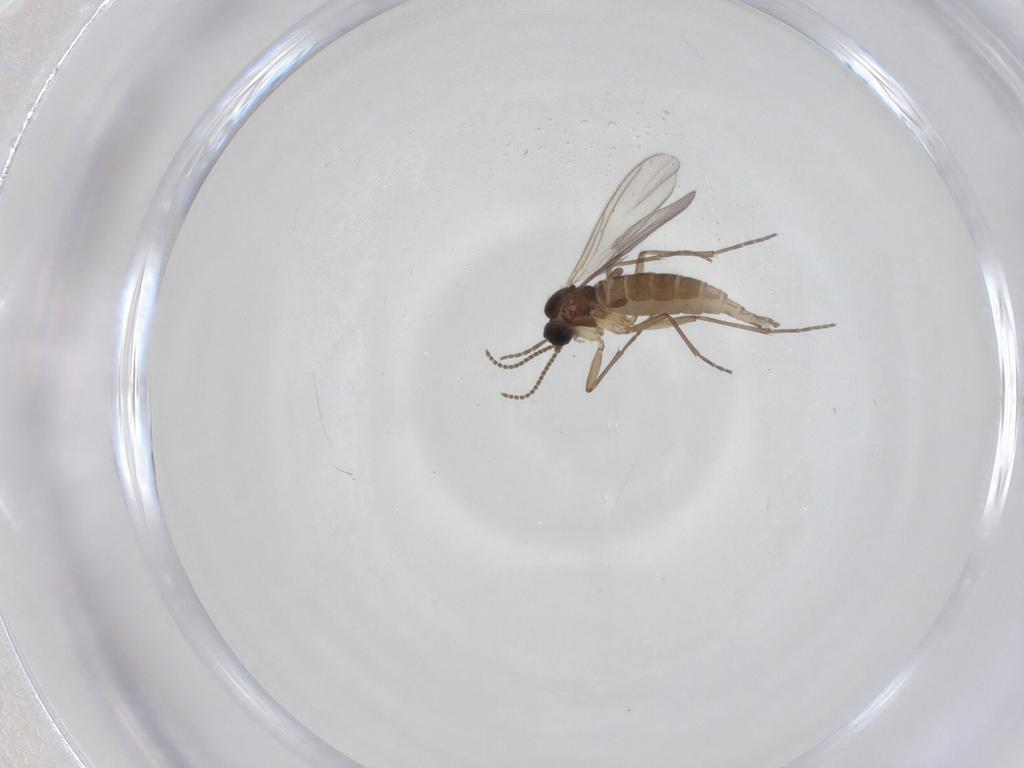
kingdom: Animalia
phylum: Arthropoda
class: Insecta
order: Diptera
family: Sciaridae
